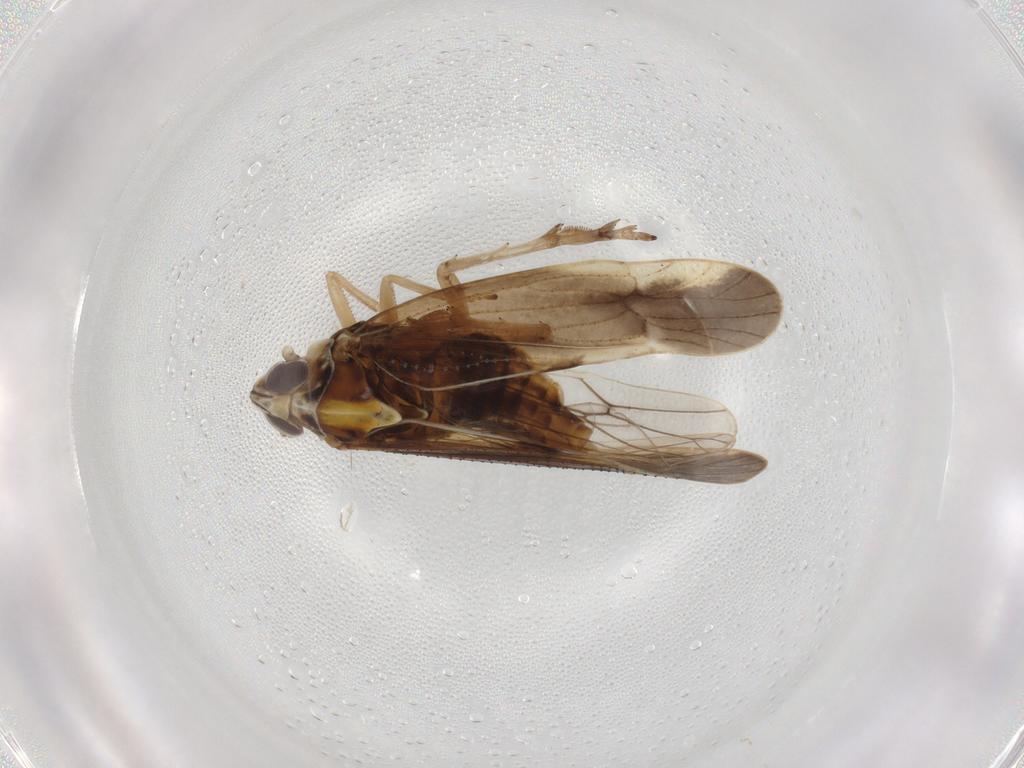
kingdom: Animalia
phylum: Arthropoda
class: Insecta
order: Hemiptera
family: Delphacidae
